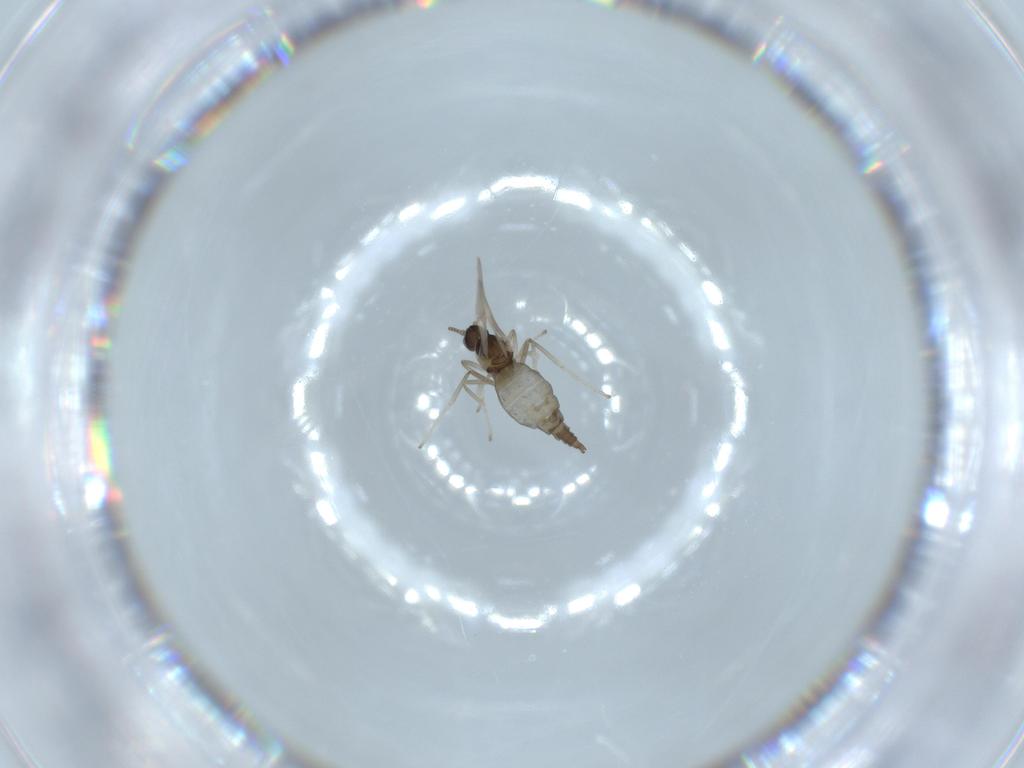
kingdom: Animalia
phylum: Arthropoda
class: Insecta
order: Diptera
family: Cecidomyiidae
